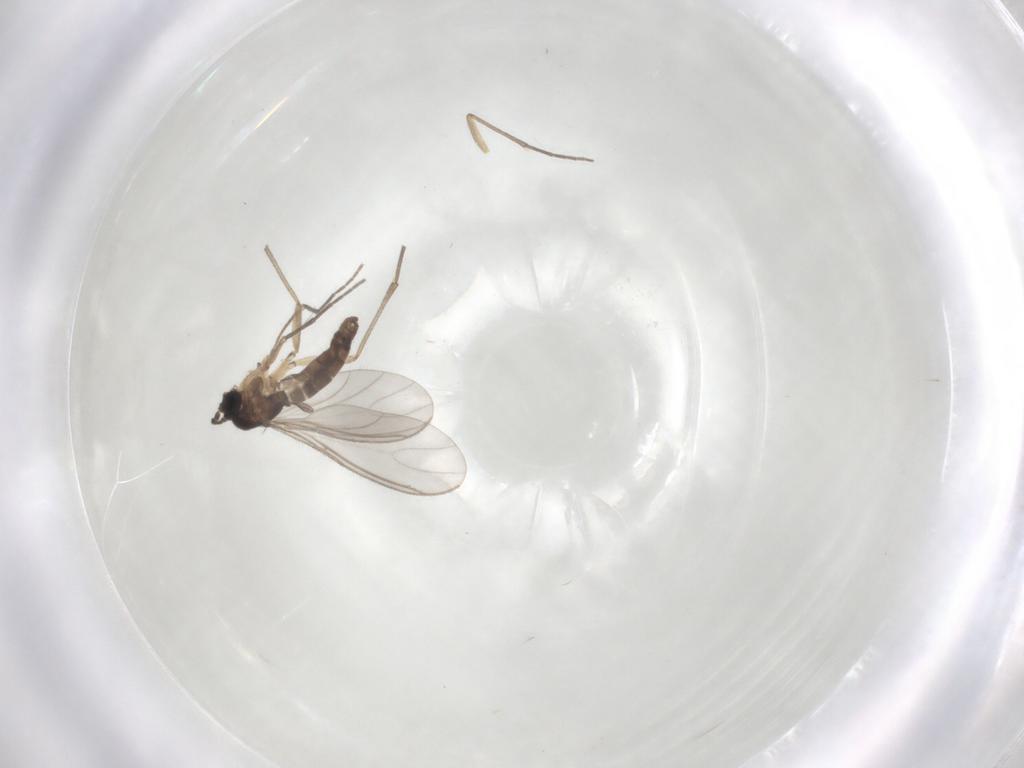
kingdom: Animalia
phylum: Arthropoda
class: Insecta
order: Diptera
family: Sciaridae
